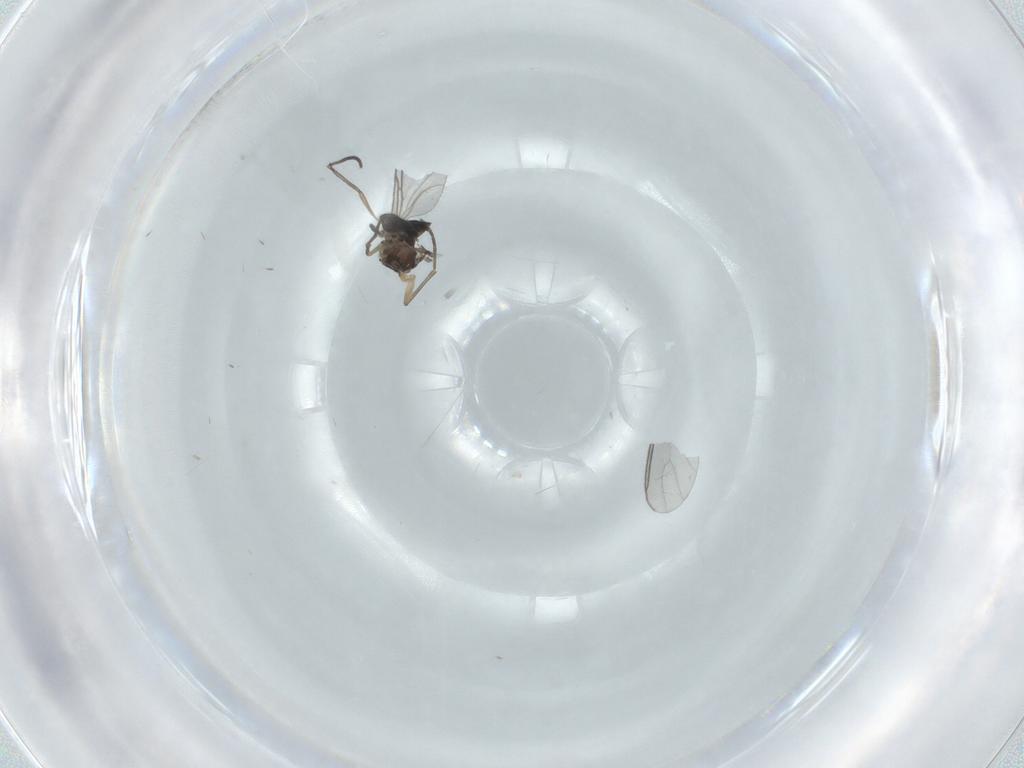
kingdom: Animalia
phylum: Arthropoda
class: Insecta
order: Diptera
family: Sciaridae
